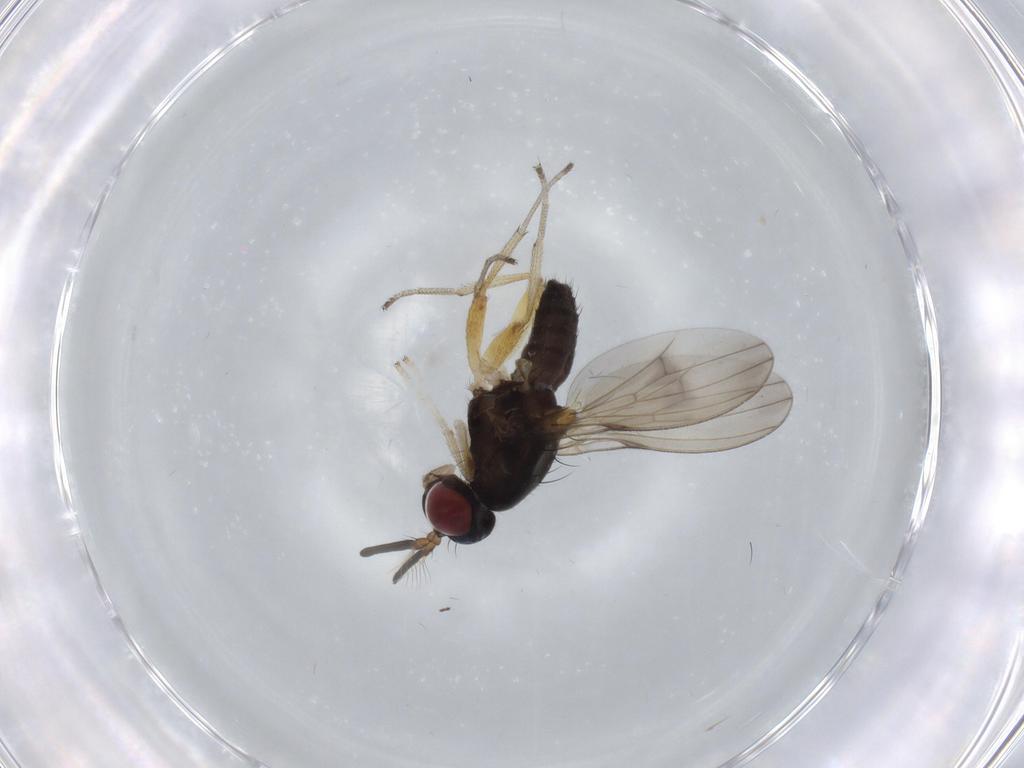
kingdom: Animalia
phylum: Arthropoda
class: Insecta
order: Diptera
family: Lauxaniidae
